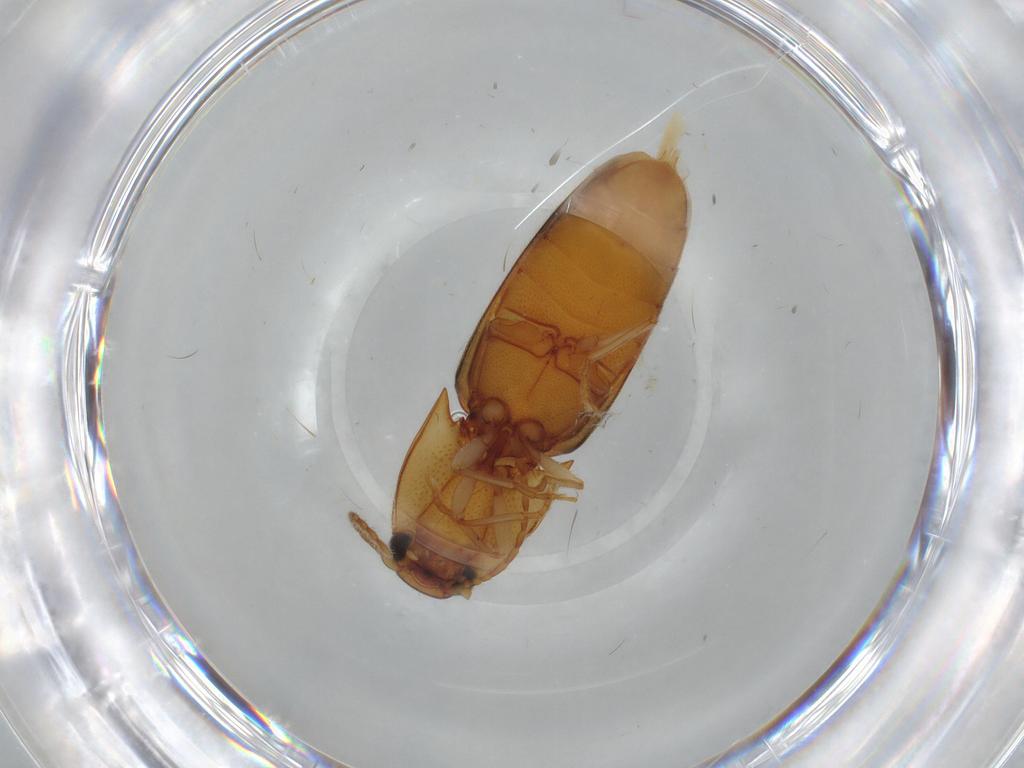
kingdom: Animalia
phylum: Arthropoda
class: Insecta
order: Coleoptera
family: Elateridae
